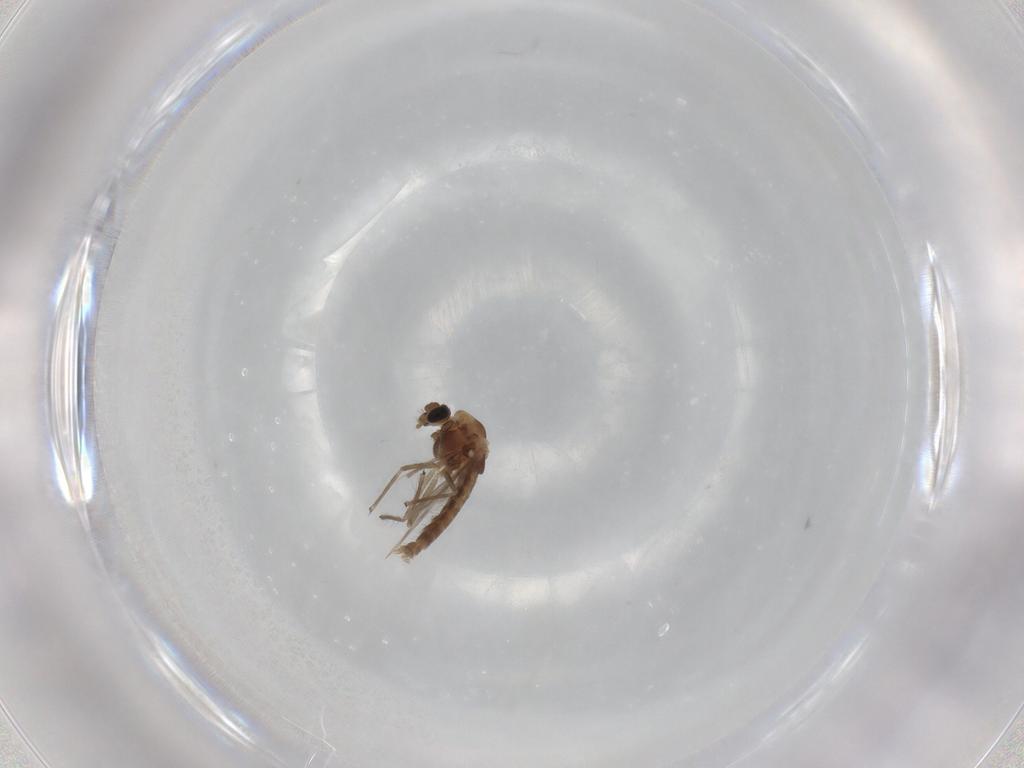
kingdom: Animalia
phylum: Arthropoda
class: Insecta
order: Diptera
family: Chironomidae
